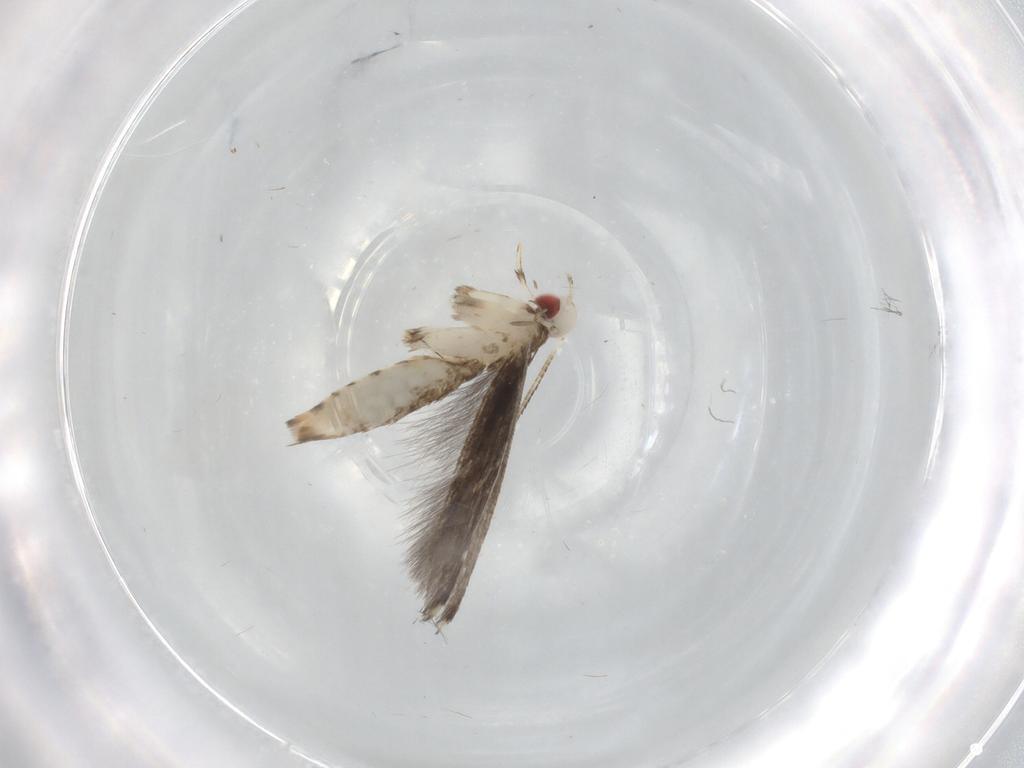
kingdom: Animalia
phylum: Arthropoda
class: Insecta
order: Lepidoptera
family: Gracillariidae
